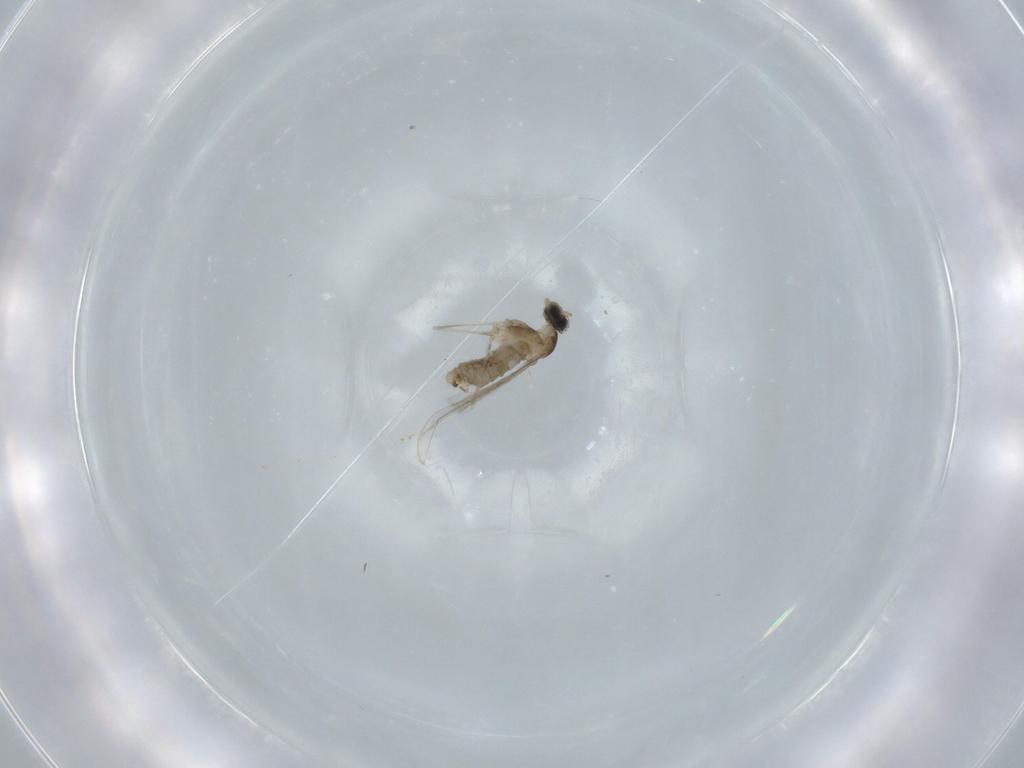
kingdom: Animalia
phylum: Arthropoda
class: Insecta
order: Diptera
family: Cecidomyiidae
